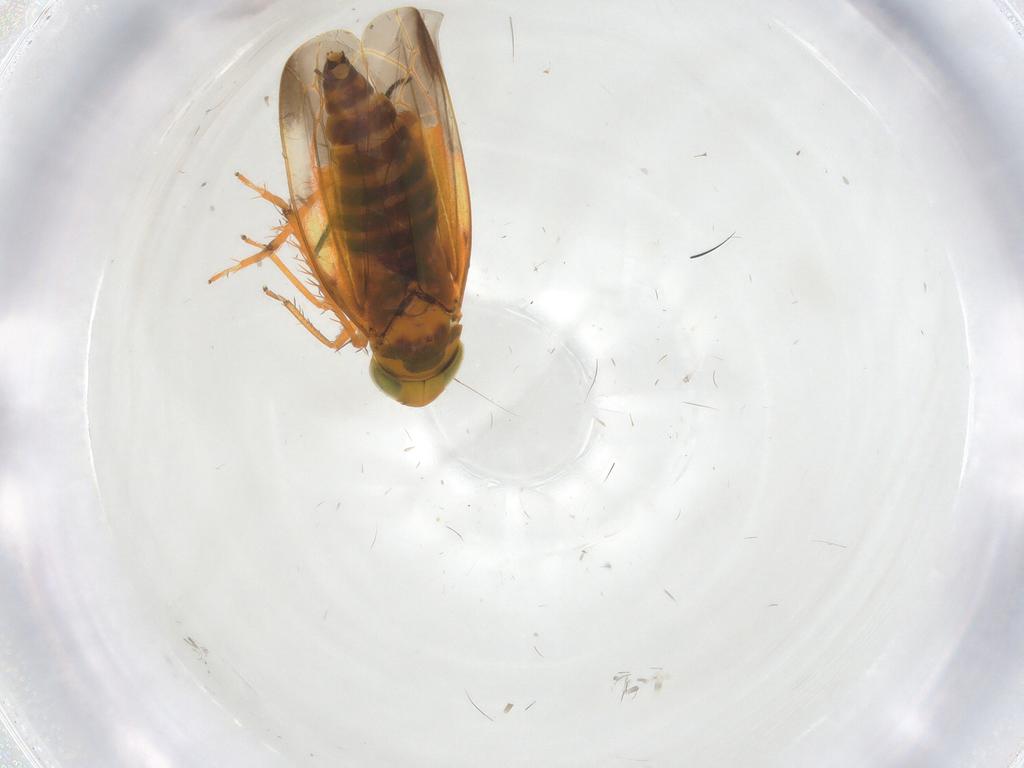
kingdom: Animalia
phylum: Arthropoda
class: Insecta
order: Hemiptera
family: Cicadellidae
